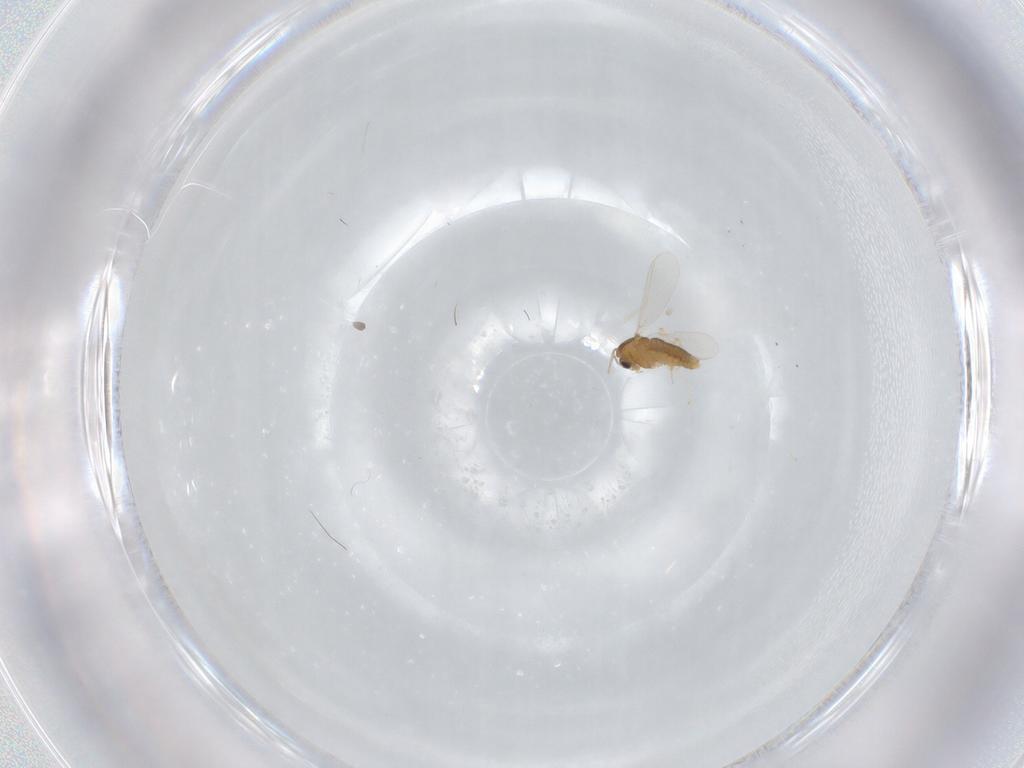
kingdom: Animalia
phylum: Arthropoda
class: Insecta
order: Diptera
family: Chironomidae
